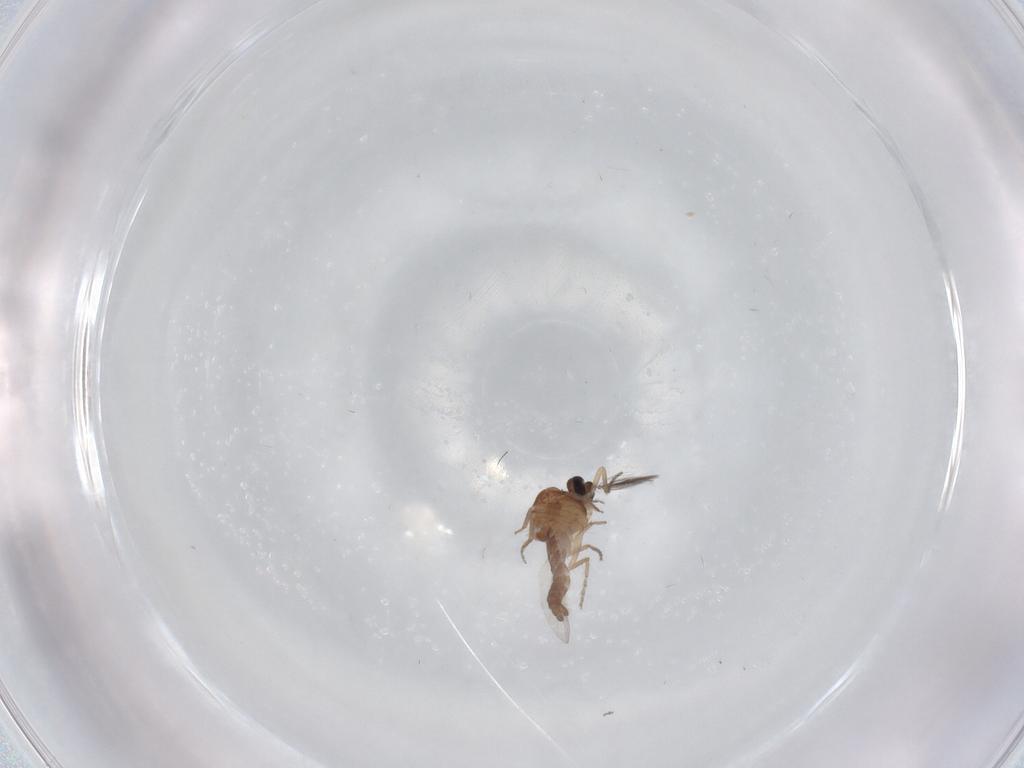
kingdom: Animalia
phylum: Arthropoda
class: Insecta
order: Diptera
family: Ceratopogonidae
